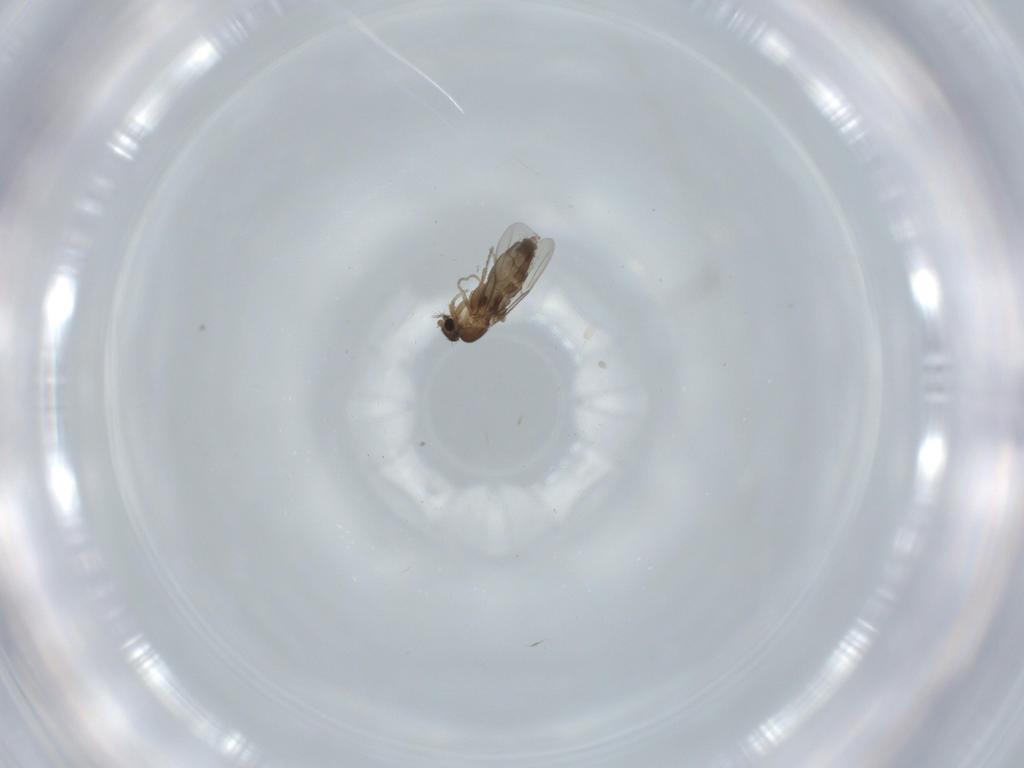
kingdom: Animalia
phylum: Arthropoda
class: Insecta
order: Diptera
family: Phoridae
